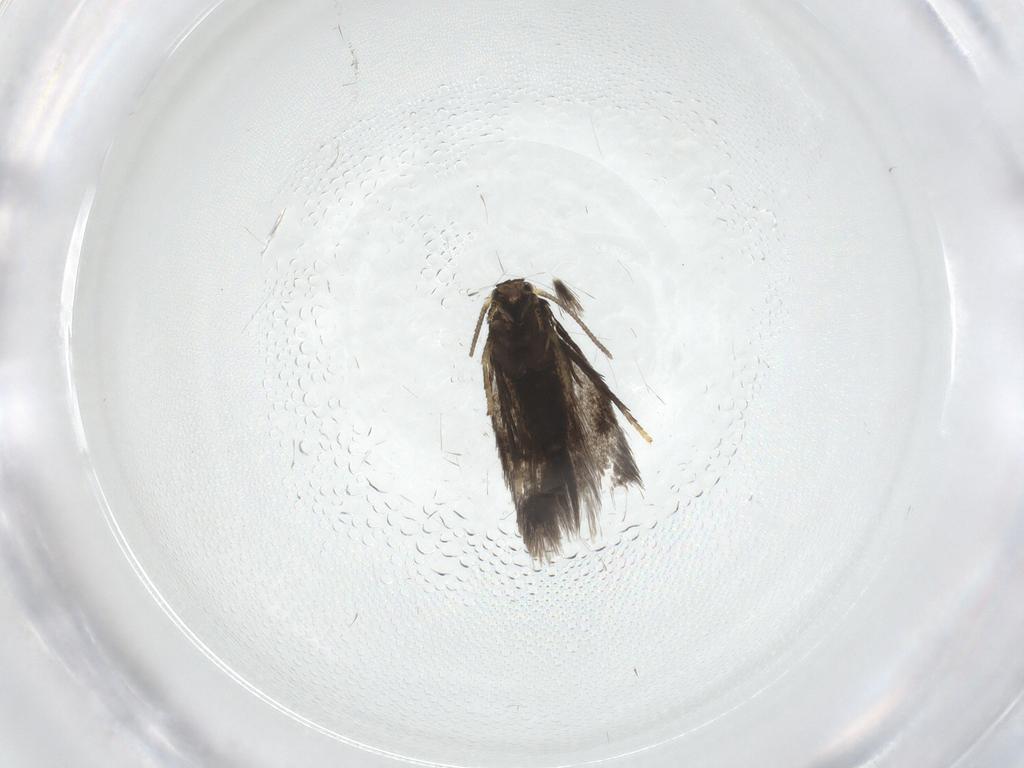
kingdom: Animalia
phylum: Arthropoda
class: Insecta
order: Lepidoptera
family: Nepticulidae
